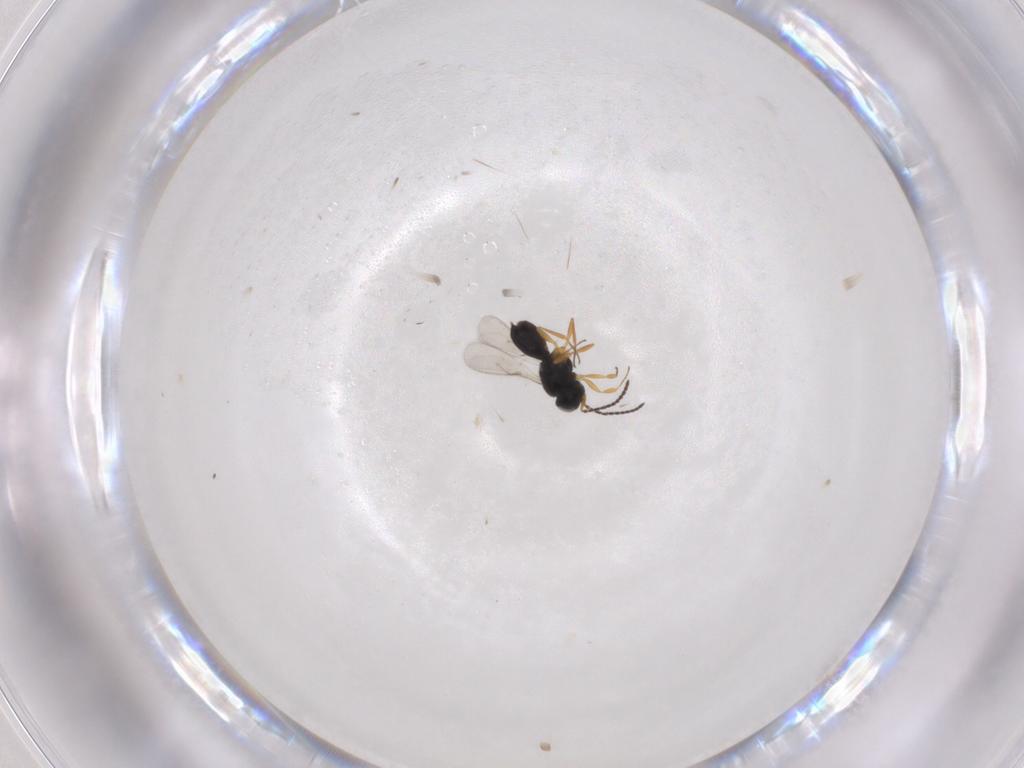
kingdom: Animalia
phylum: Arthropoda
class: Insecta
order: Hymenoptera
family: Scelionidae
